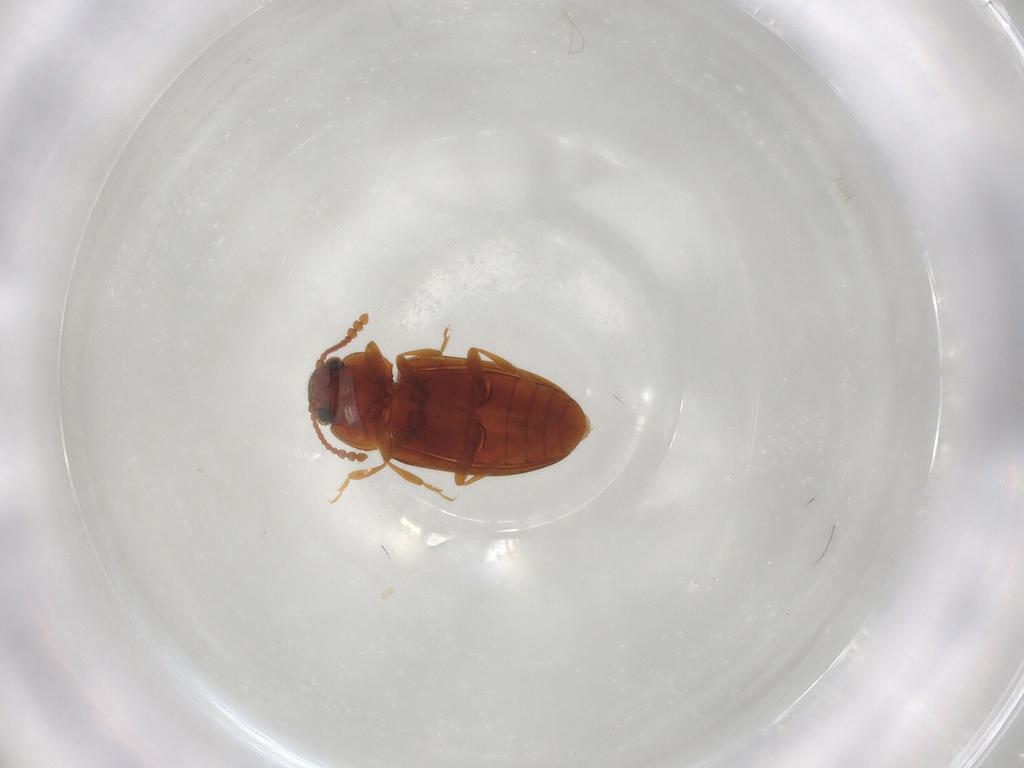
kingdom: Animalia
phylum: Arthropoda
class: Insecta
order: Coleoptera
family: Erotylidae
